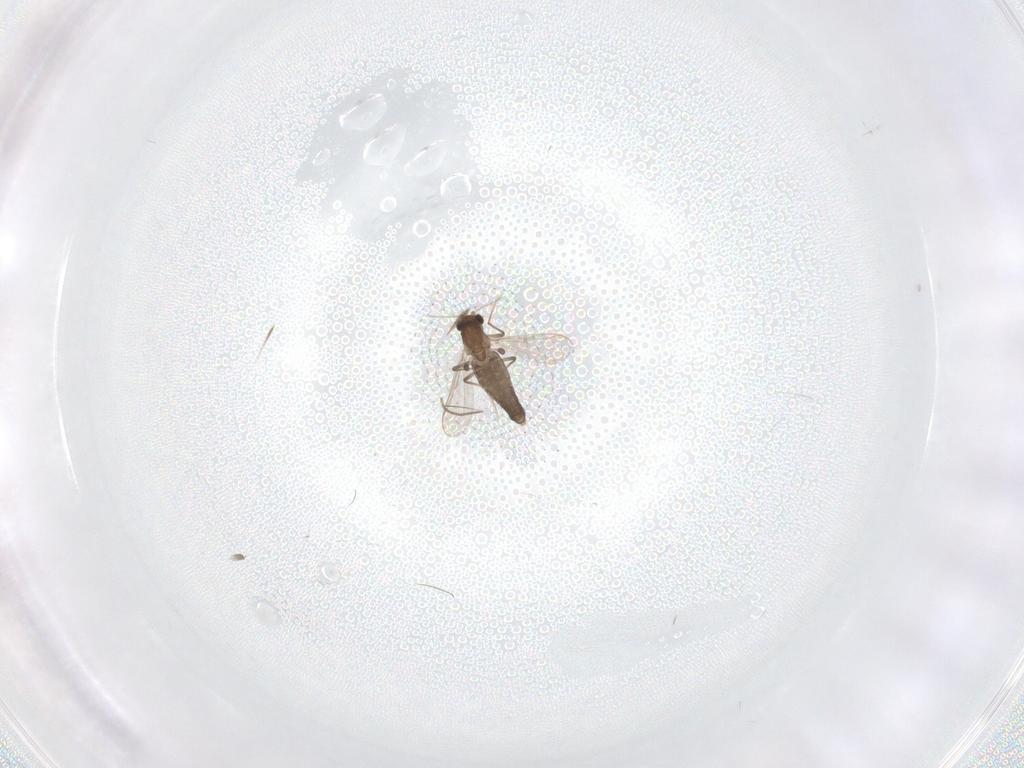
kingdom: Animalia
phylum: Arthropoda
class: Insecta
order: Diptera
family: Chironomidae
